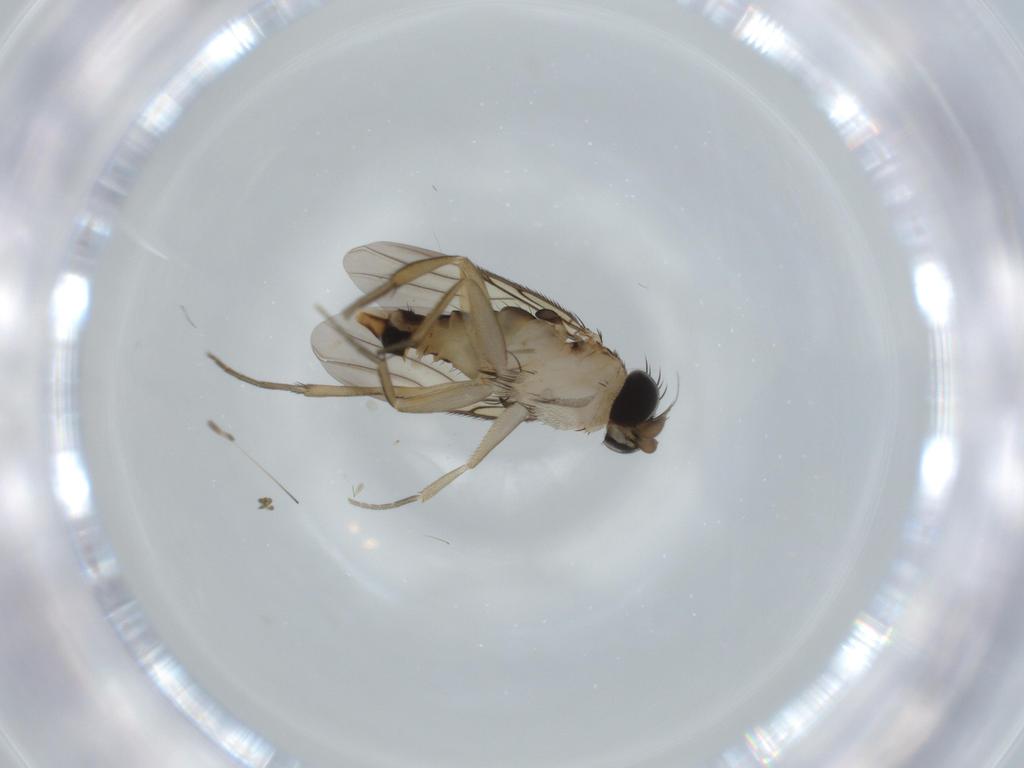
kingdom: Animalia
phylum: Arthropoda
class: Insecta
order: Diptera
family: Phoridae
